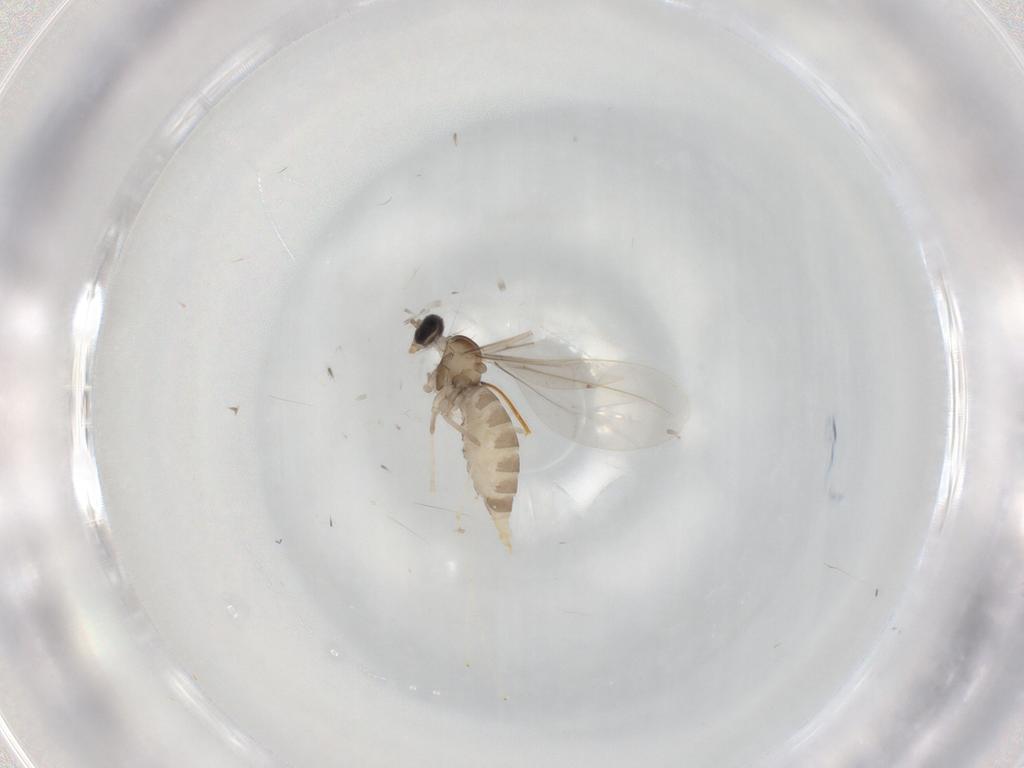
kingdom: Animalia
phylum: Arthropoda
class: Insecta
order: Diptera
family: Cecidomyiidae
